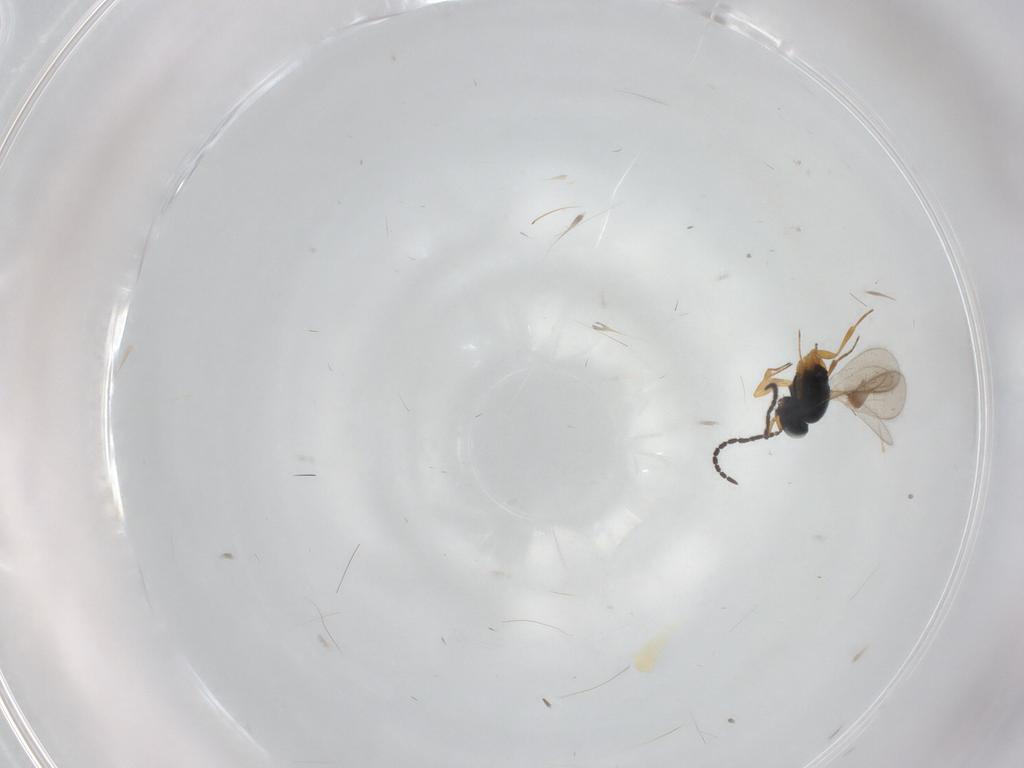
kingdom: Animalia
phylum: Arthropoda
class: Insecta
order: Hymenoptera
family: Scelionidae
